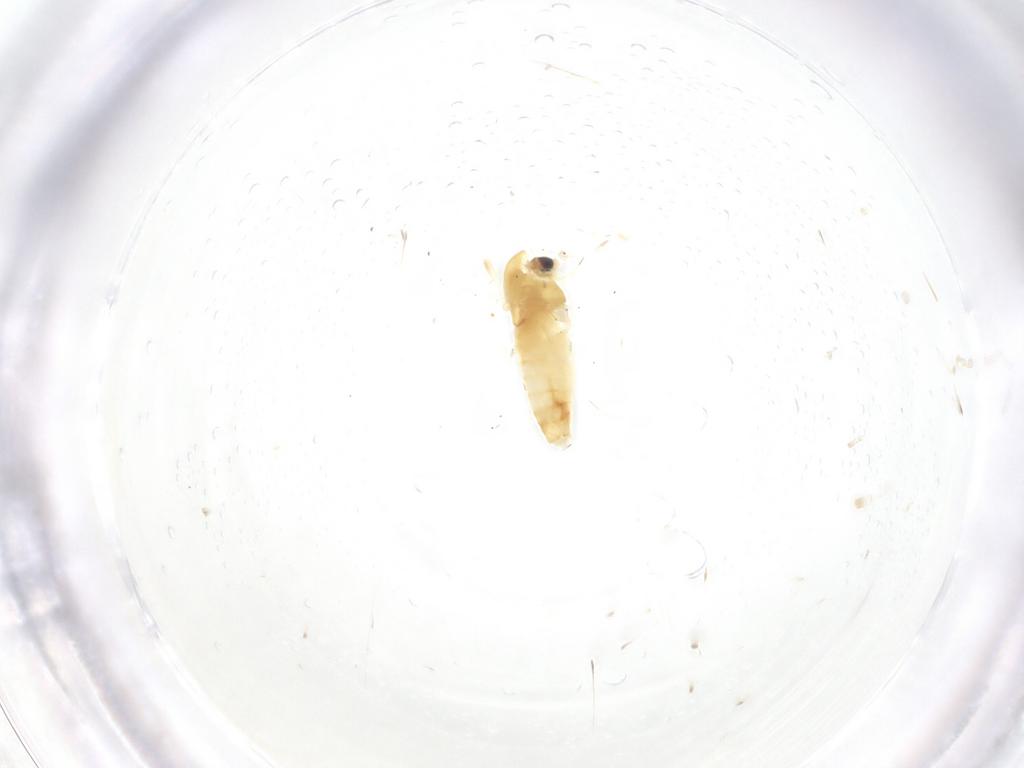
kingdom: Animalia
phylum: Arthropoda
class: Insecta
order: Diptera
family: Chironomidae
